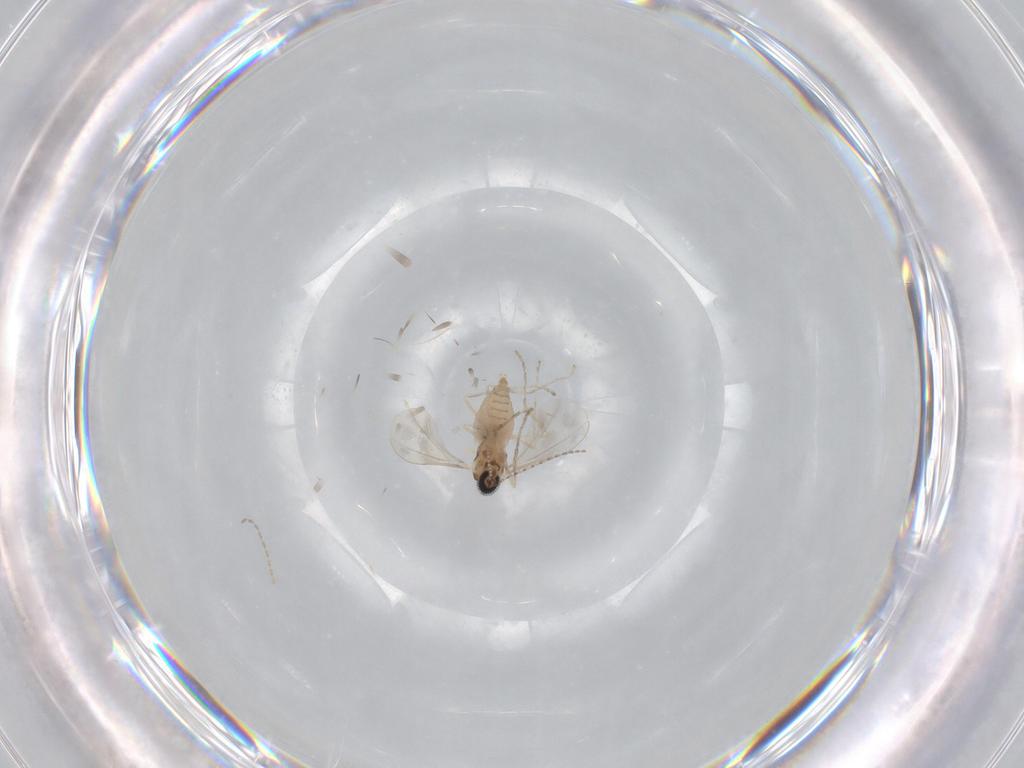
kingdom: Animalia
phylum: Arthropoda
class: Insecta
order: Diptera
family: Cecidomyiidae
